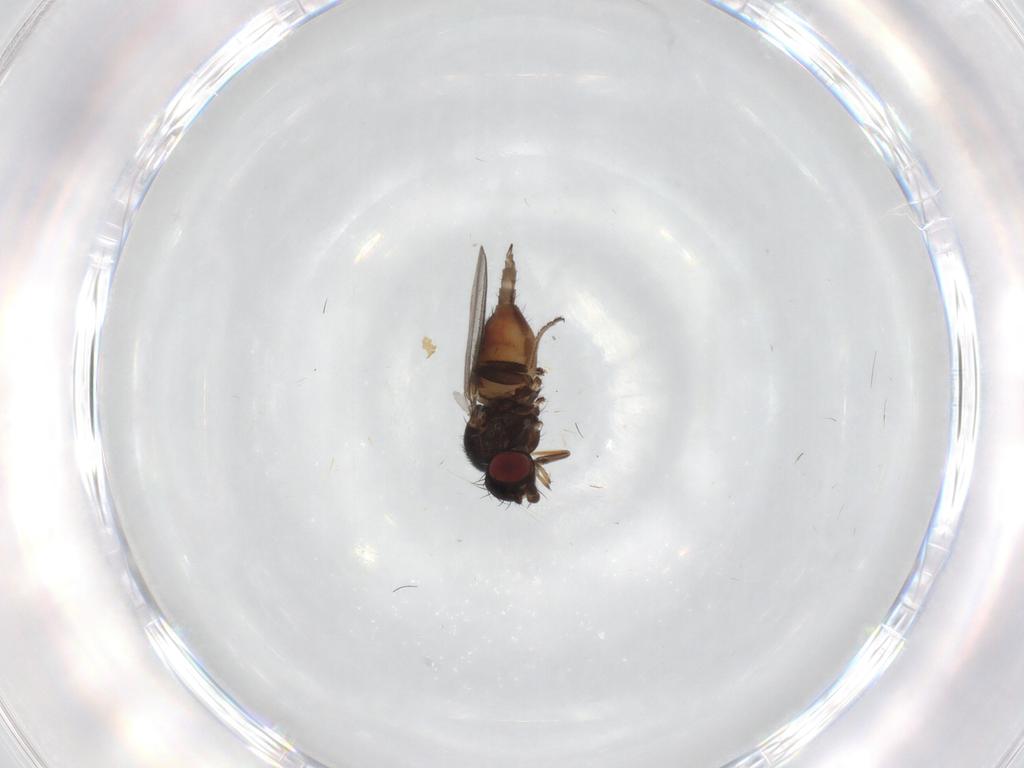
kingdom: Animalia
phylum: Arthropoda
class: Insecta
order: Diptera
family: Milichiidae
